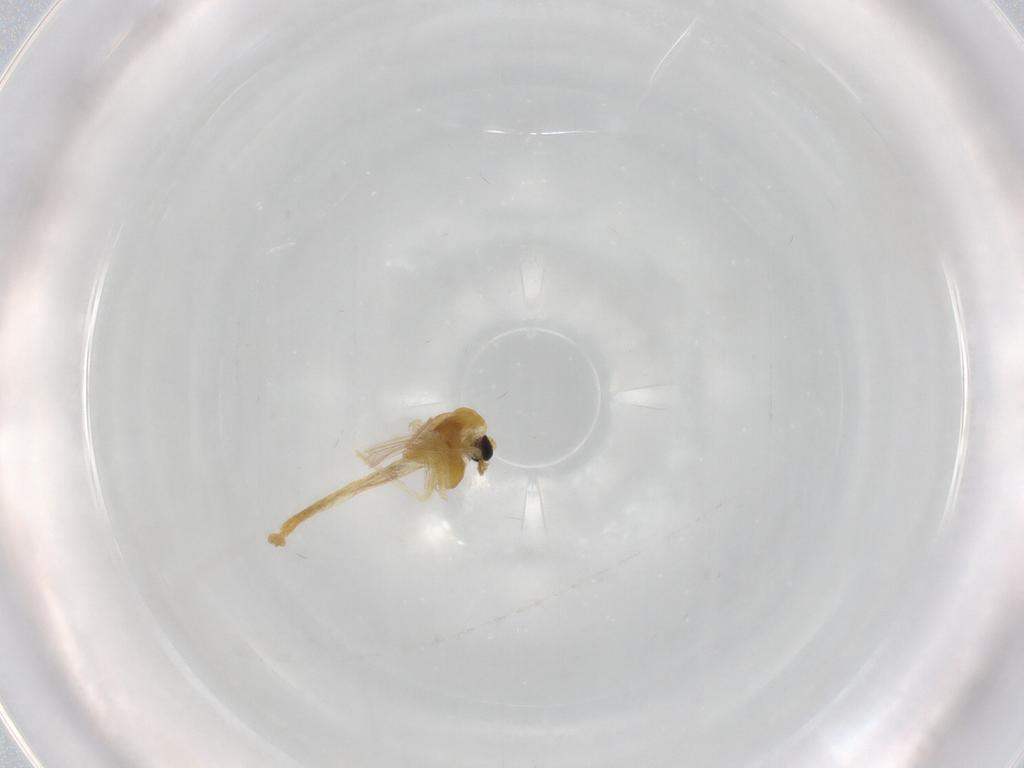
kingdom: Animalia
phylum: Arthropoda
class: Insecta
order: Diptera
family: Chironomidae
